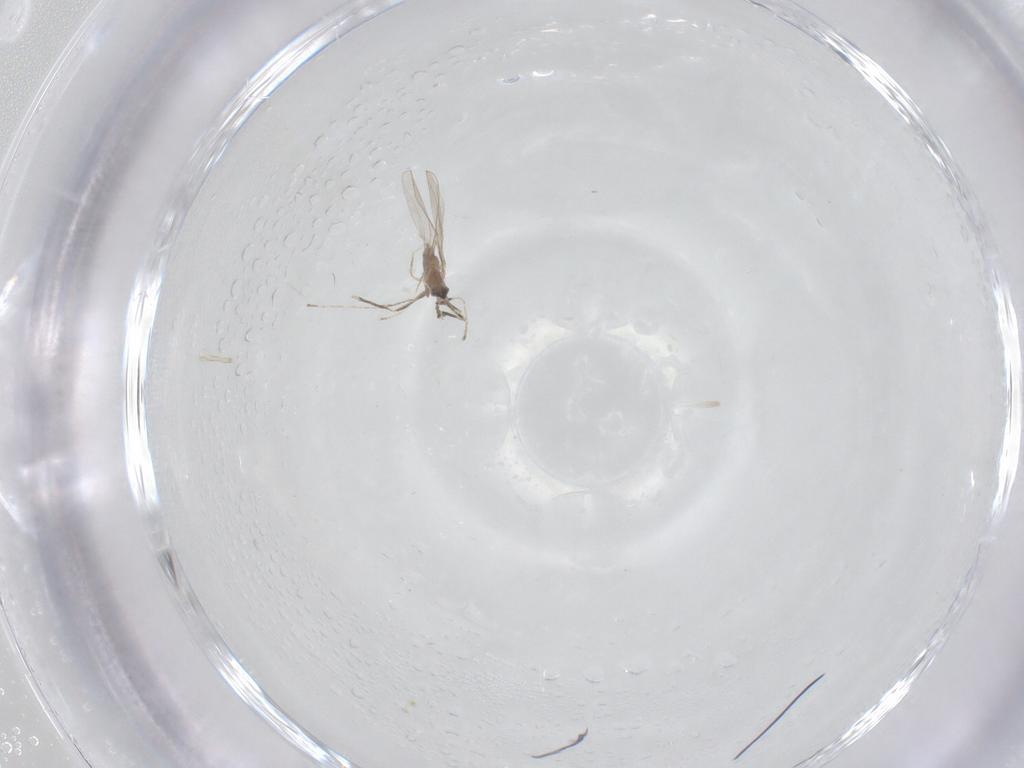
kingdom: Animalia
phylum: Arthropoda
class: Insecta
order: Diptera
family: Cecidomyiidae
